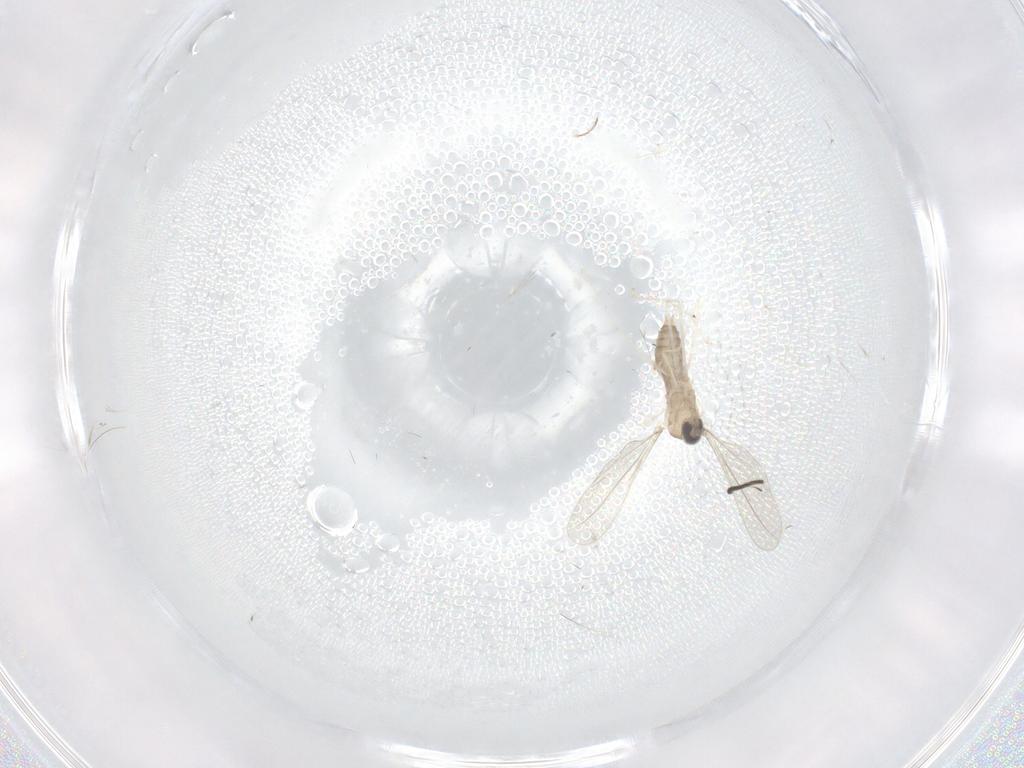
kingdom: Animalia
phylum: Arthropoda
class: Insecta
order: Diptera
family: Cecidomyiidae
